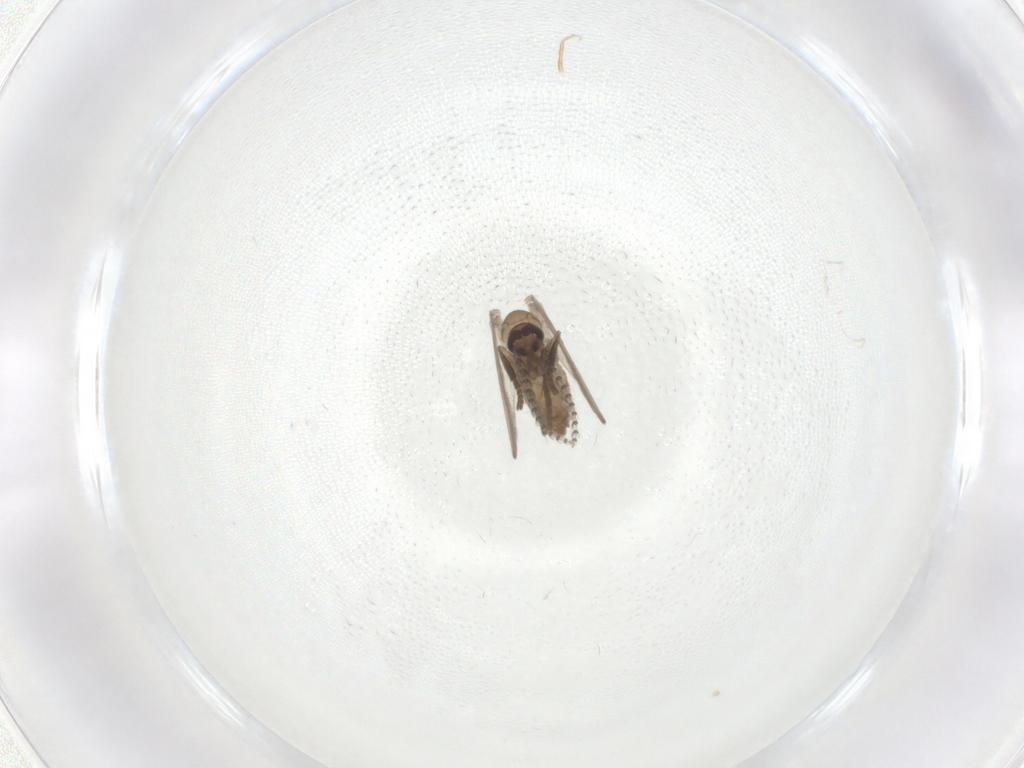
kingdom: Animalia
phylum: Arthropoda
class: Insecta
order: Diptera
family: Psychodidae
